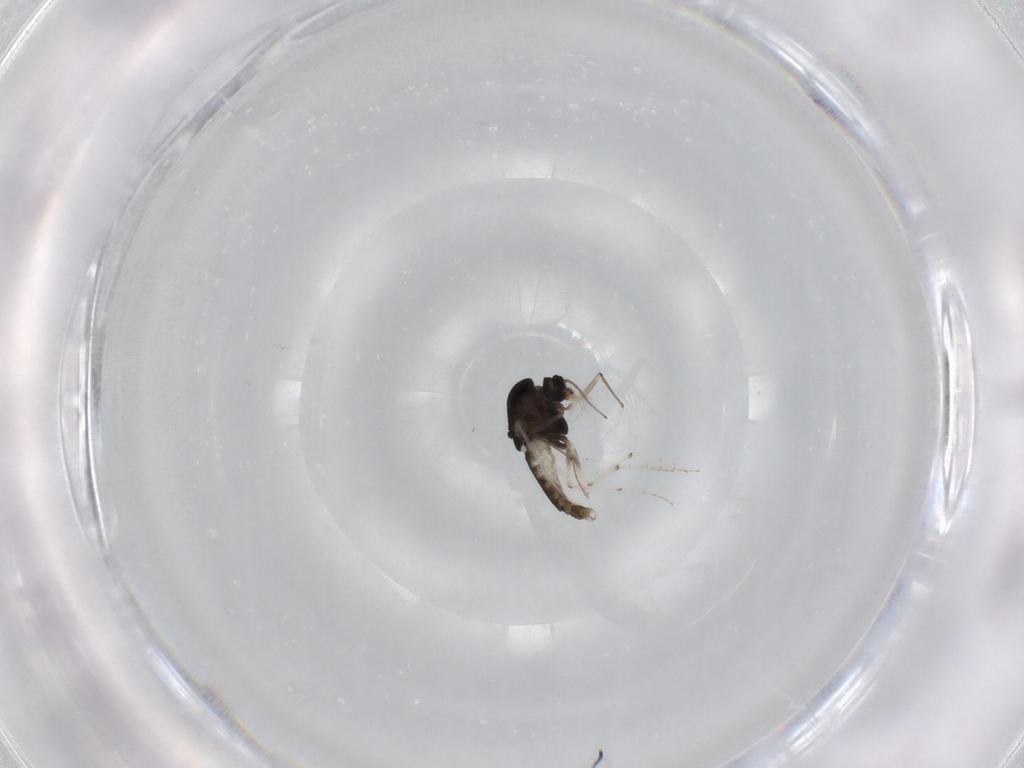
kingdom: Animalia
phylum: Arthropoda
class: Insecta
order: Diptera
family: Chironomidae
